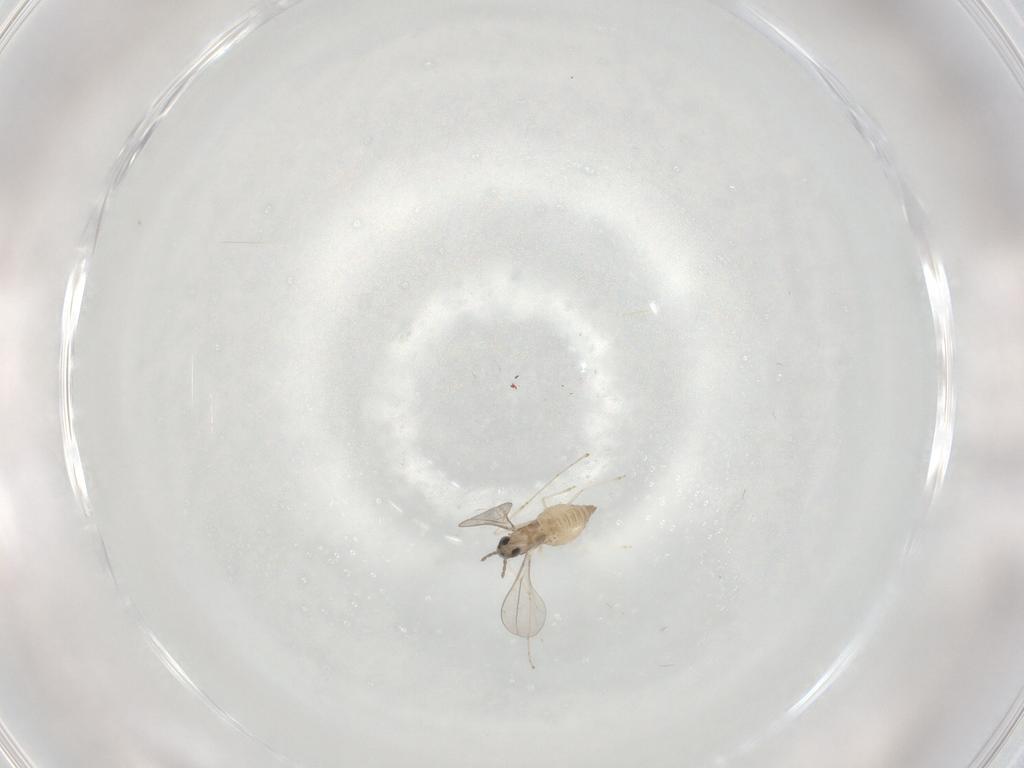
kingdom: Animalia
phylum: Arthropoda
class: Insecta
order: Diptera
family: Cecidomyiidae
